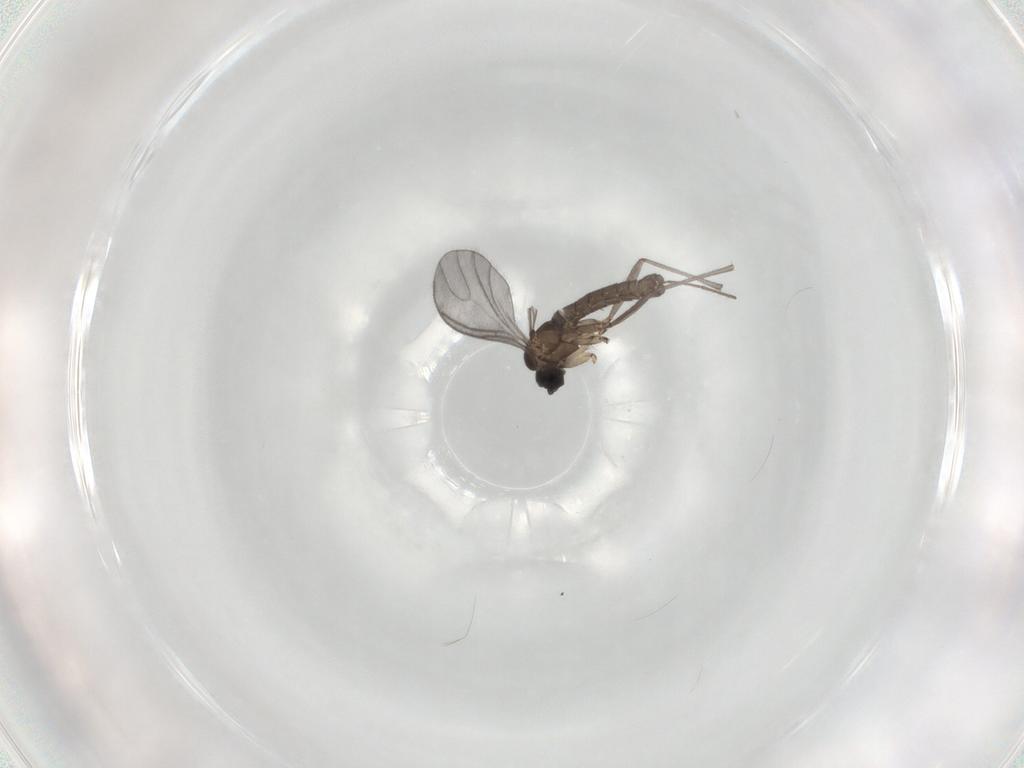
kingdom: Animalia
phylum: Arthropoda
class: Insecta
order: Diptera
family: Sciaridae
